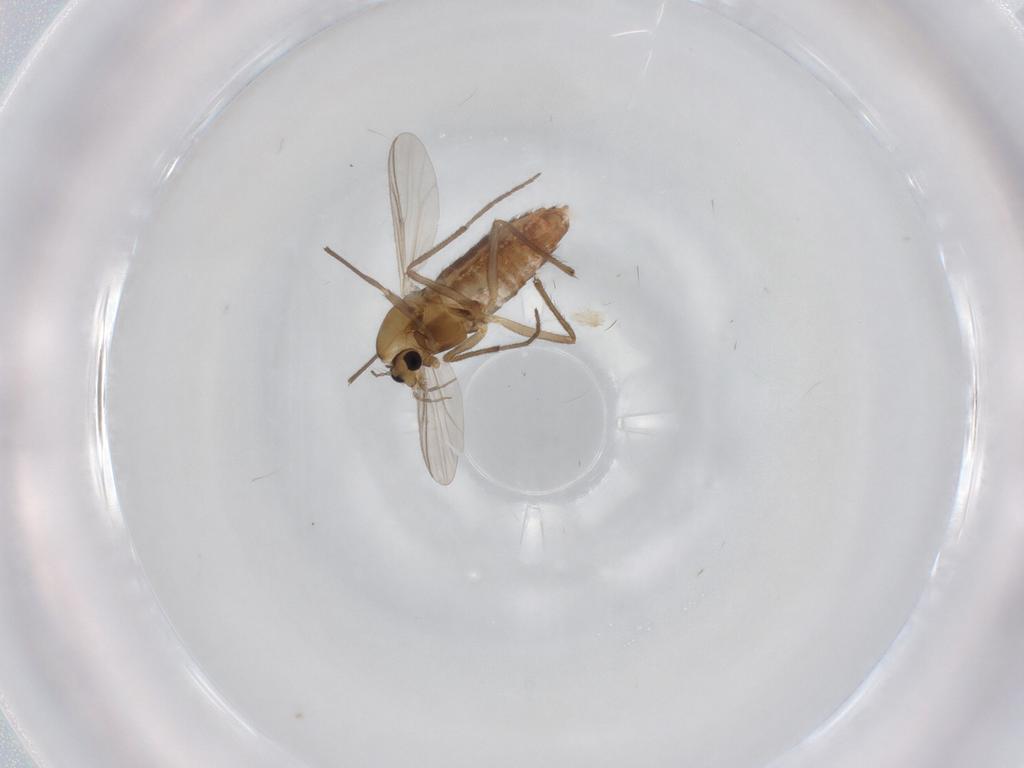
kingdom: Animalia
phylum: Arthropoda
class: Insecta
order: Diptera
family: Chironomidae
